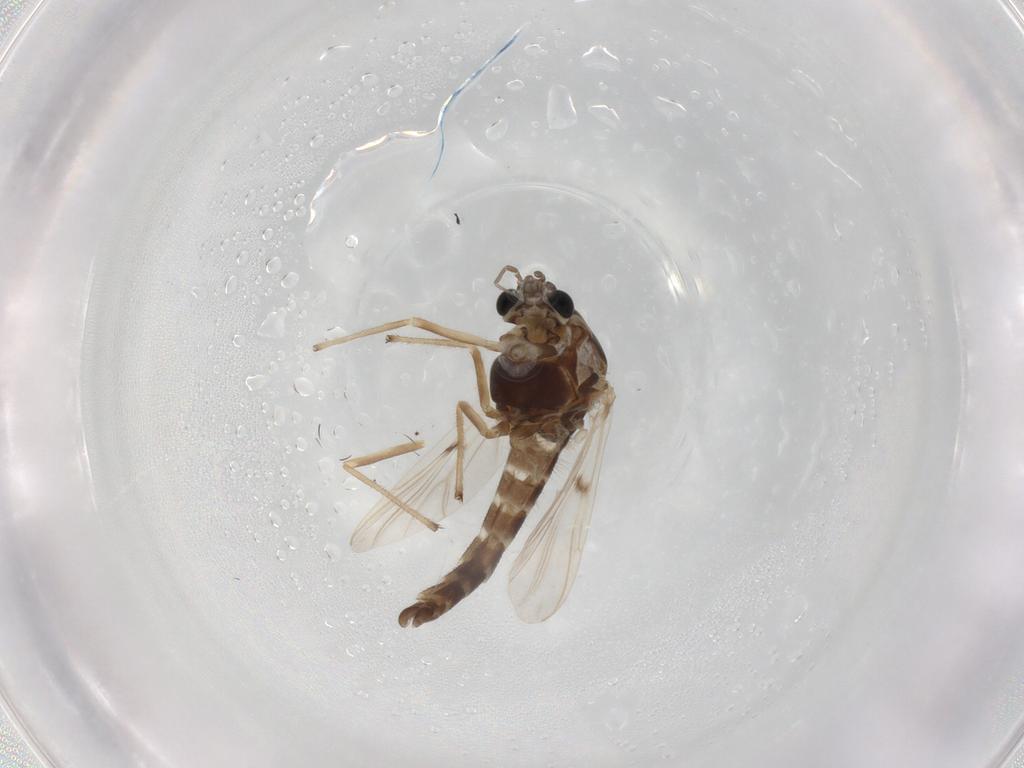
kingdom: Animalia
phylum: Arthropoda
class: Insecta
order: Diptera
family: Chironomidae
